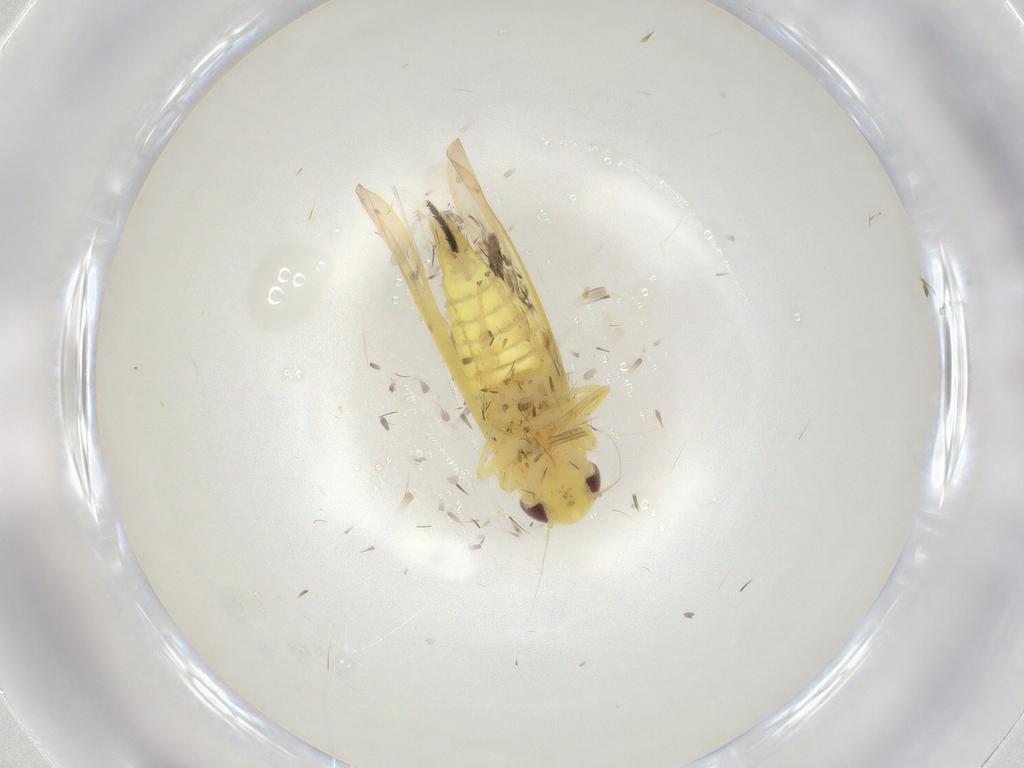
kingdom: Animalia
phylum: Arthropoda
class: Insecta
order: Hemiptera
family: Cicadellidae
